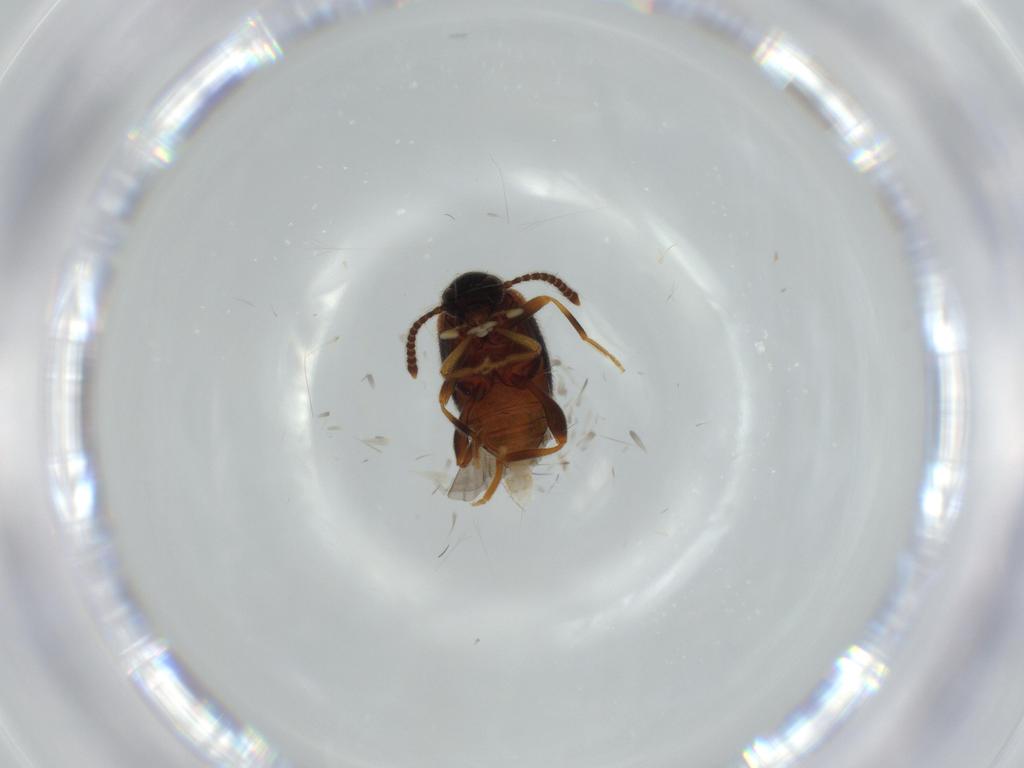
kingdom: Animalia
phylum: Arthropoda
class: Insecta
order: Coleoptera
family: Aderidae
